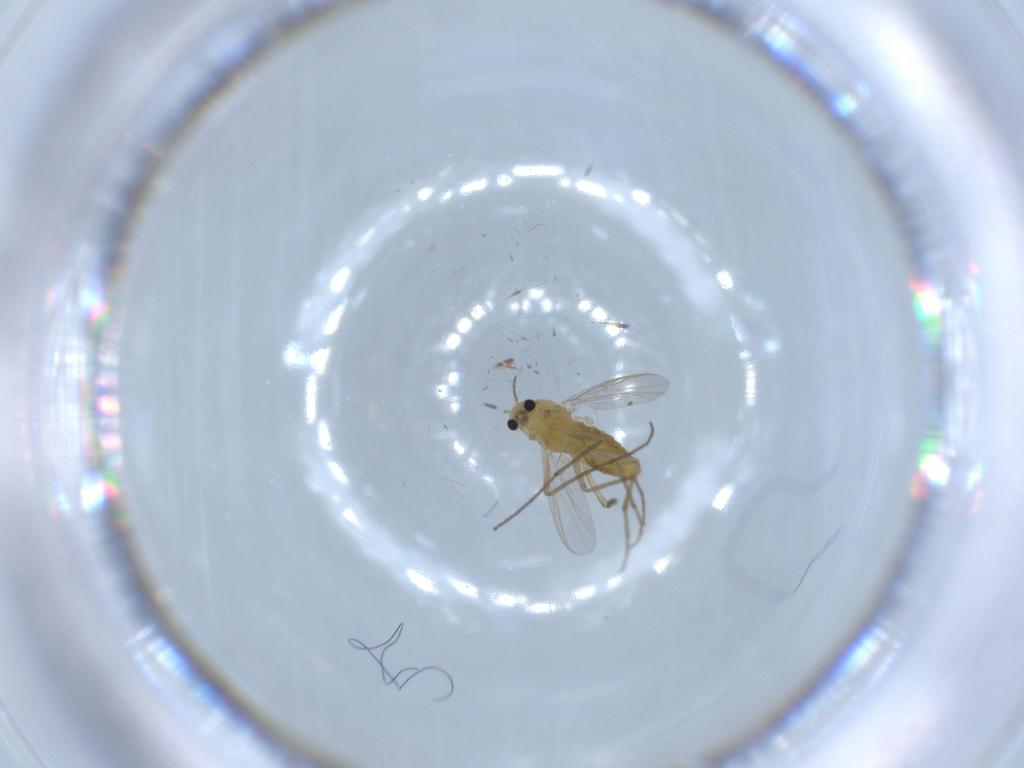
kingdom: Animalia
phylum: Arthropoda
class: Insecta
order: Diptera
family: Chironomidae
